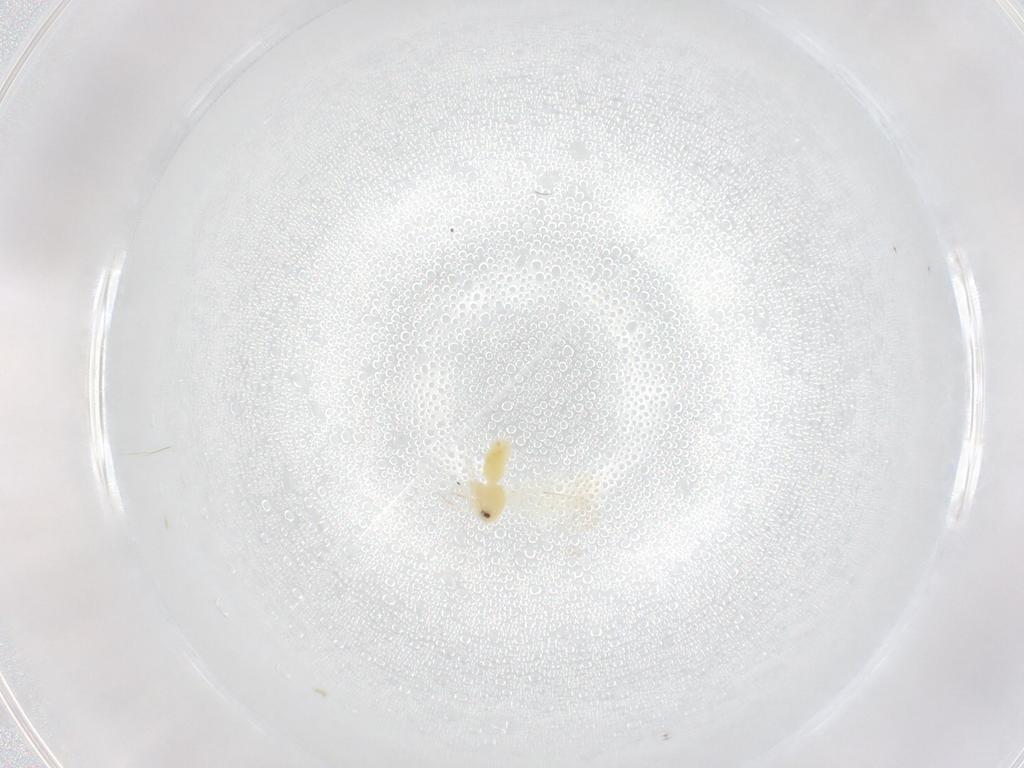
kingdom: Animalia
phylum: Arthropoda
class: Insecta
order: Hemiptera
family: Aleyrodidae
